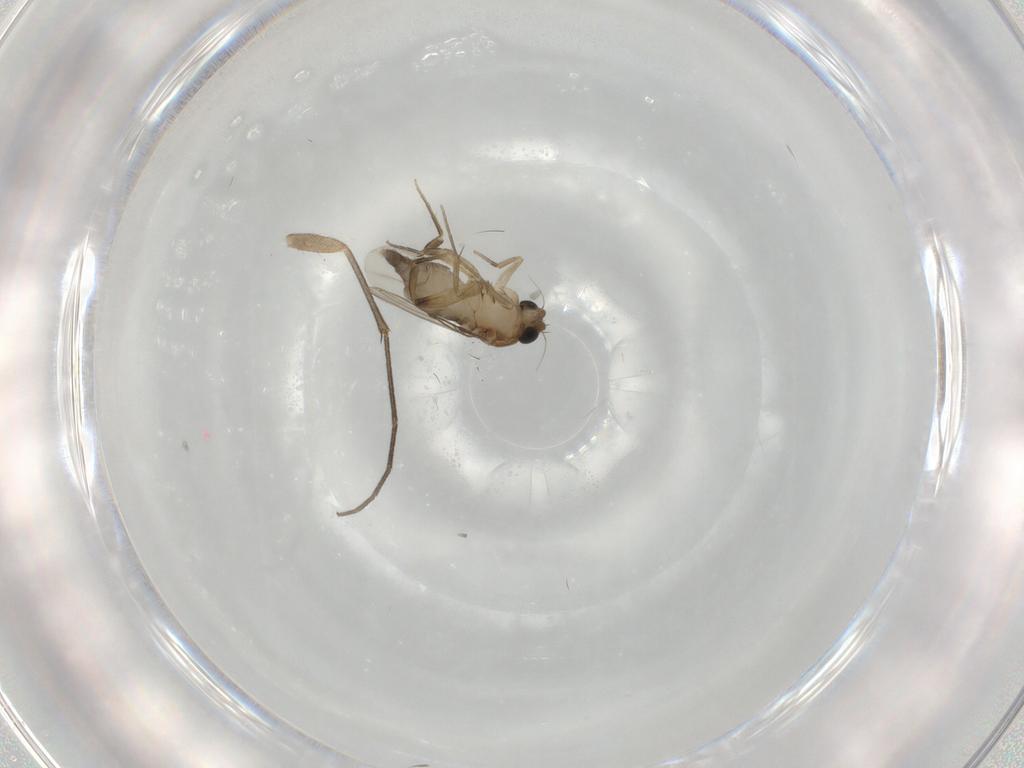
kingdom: Animalia
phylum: Arthropoda
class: Insecta
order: Diptera
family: Phoridae
